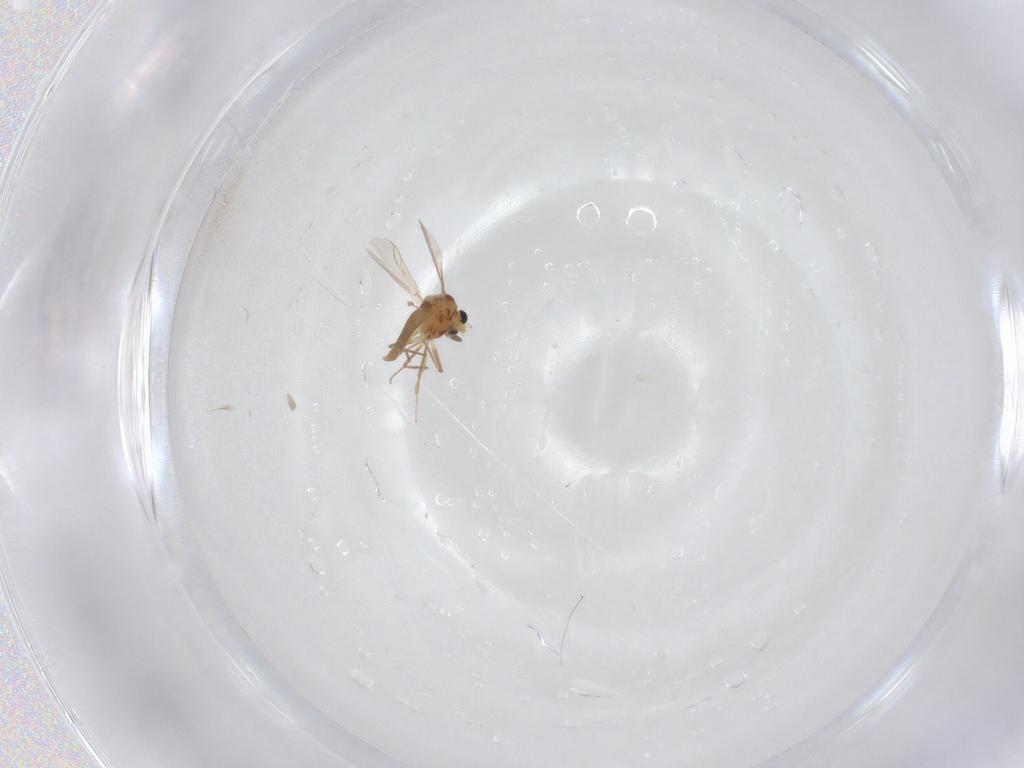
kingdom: Animalia
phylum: Arthropoda
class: Insecta
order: Diptera
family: Chironomidae
